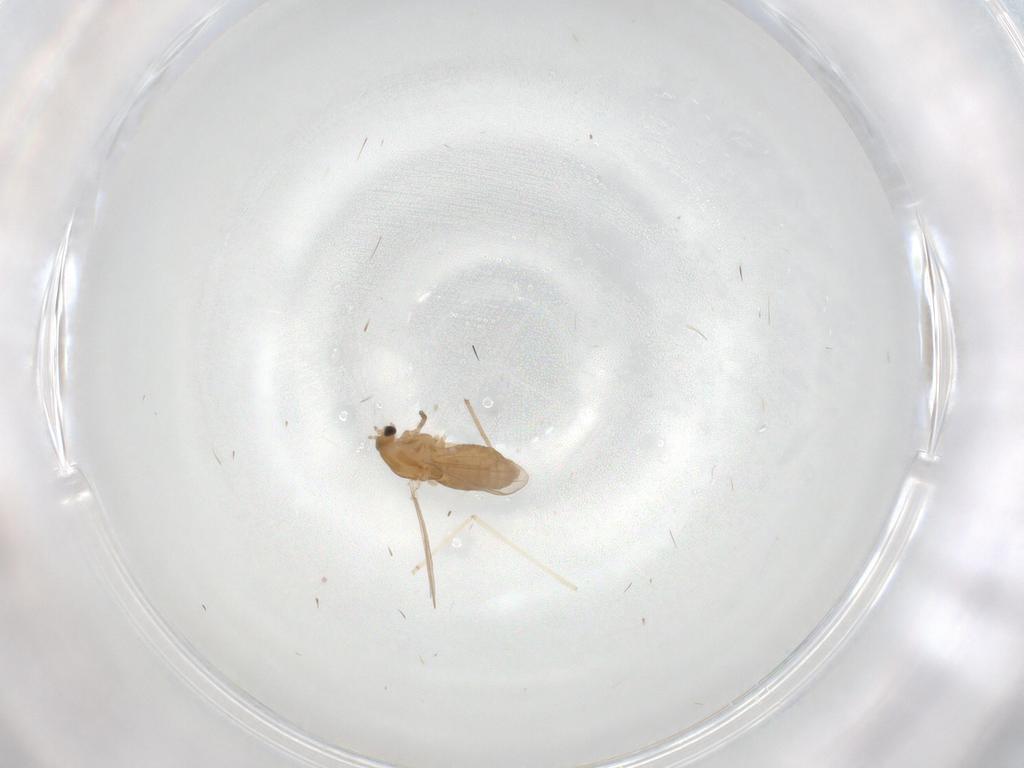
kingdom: Animalia
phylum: Arthropoda
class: Insecta
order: Diptera
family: Chironomidae
